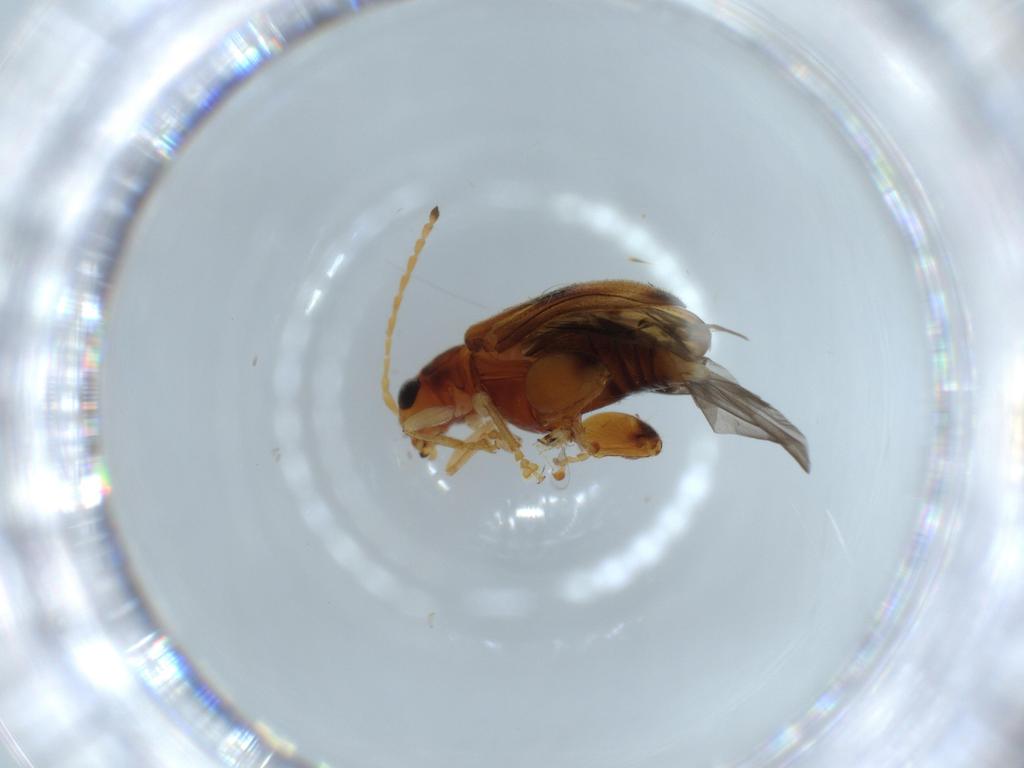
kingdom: Animalia
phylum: Arthropoda
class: Insecta
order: Coleoptera
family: Chrysomelidae
